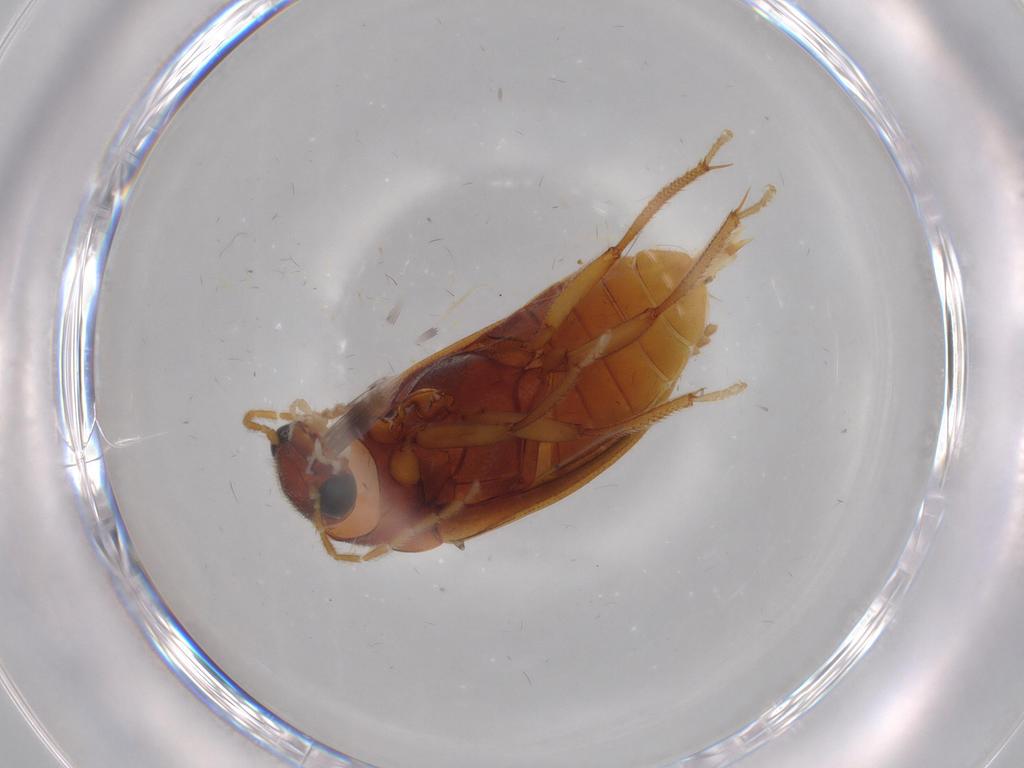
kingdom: Animalia
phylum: Arthropoda
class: Insecta
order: Coleoptera
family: Ptilodactylidae
